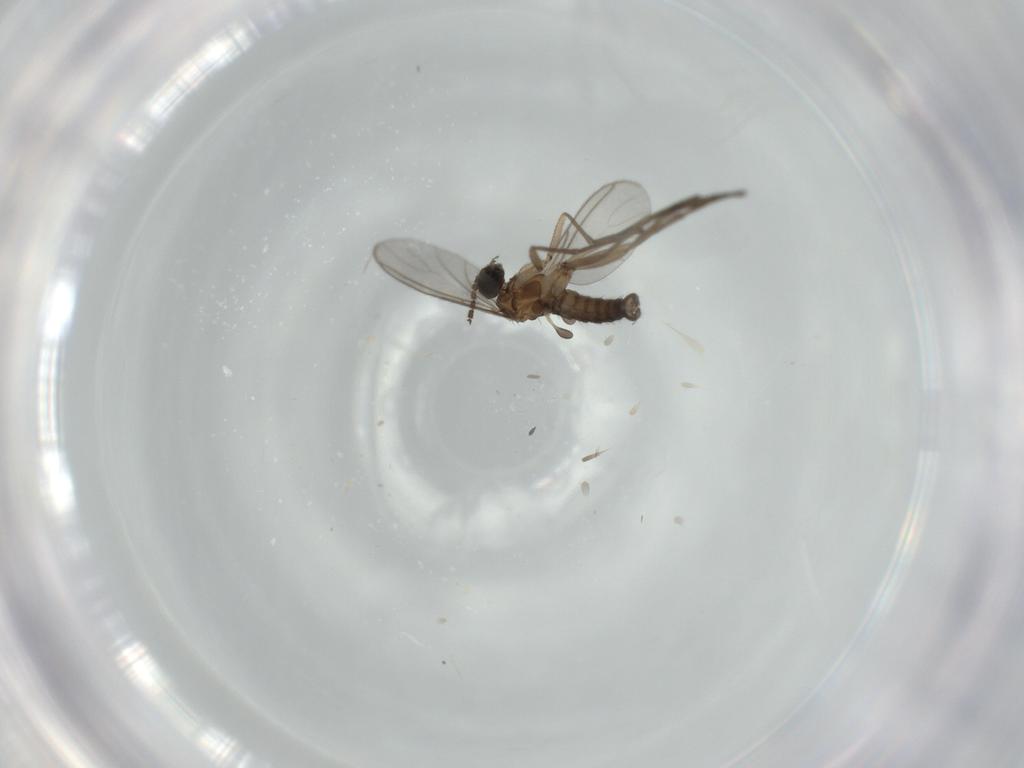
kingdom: Animalia
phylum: Arthropoda
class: Insecta
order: Diptera
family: Sciaridae
